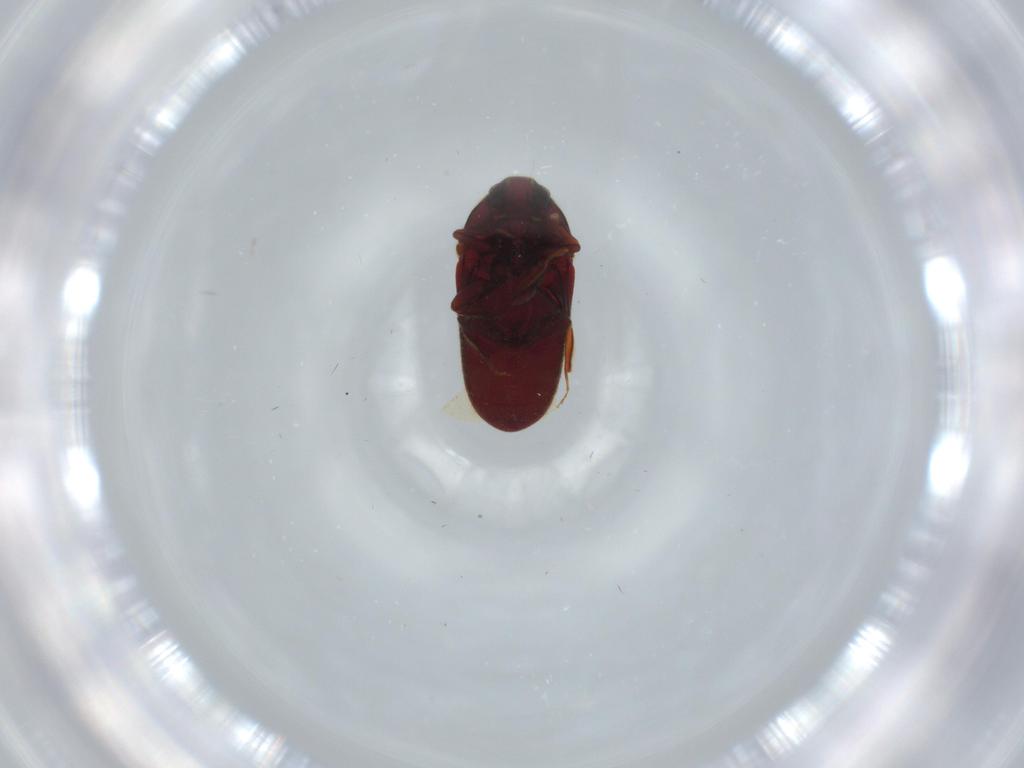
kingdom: Animalia
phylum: Arthropoda
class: Insecta
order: Coleoptera
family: Throscidae
